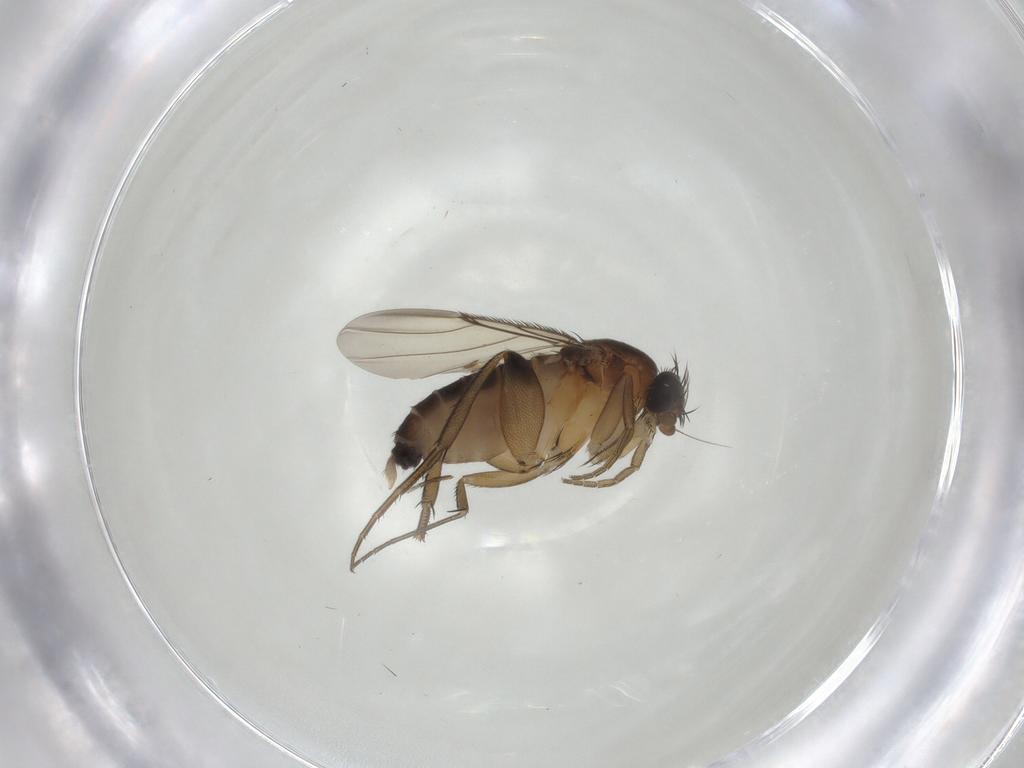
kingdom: Animalia
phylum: Arthropoda
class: Insecta
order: Diptera
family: Phoridae
